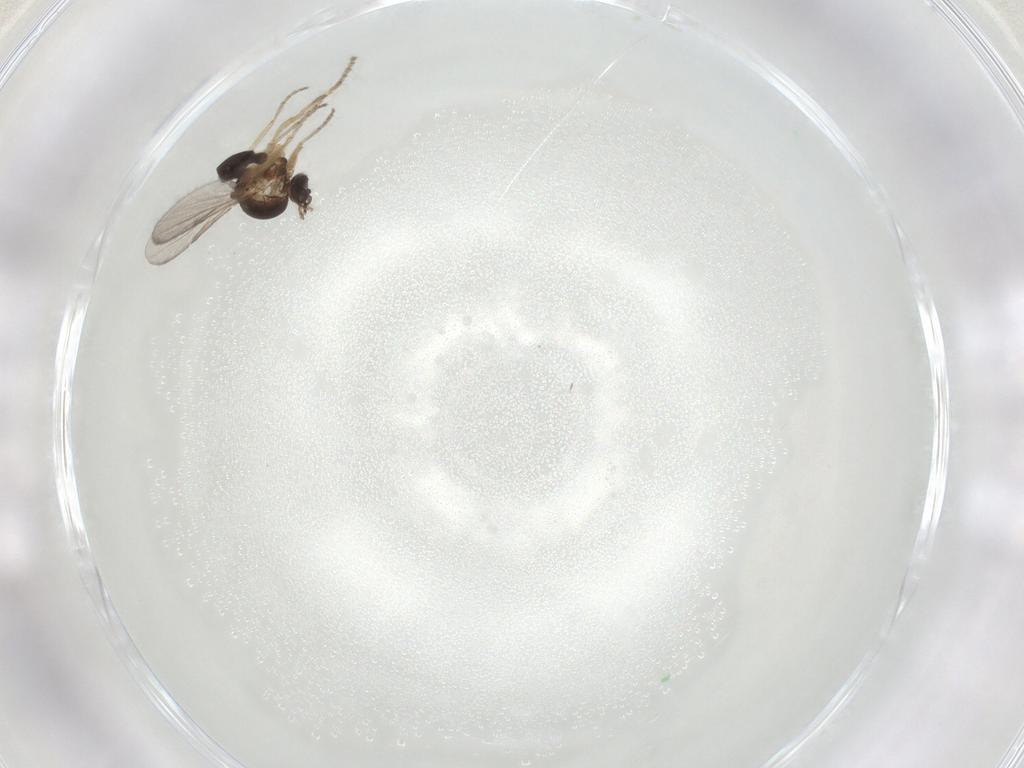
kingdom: Animalia
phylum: Arthropoda
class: Insecta
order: Diptera
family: Ceratopogonidae
